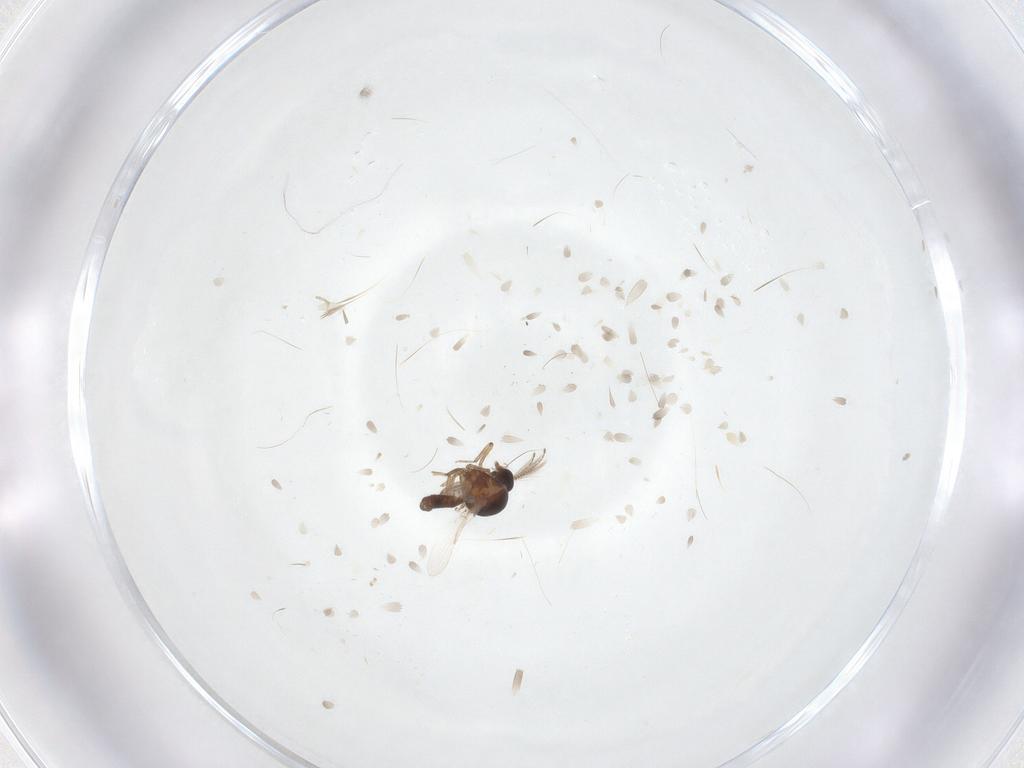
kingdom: Animalia
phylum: Arthropoda
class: Insecta
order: Diptera
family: Ceratopogonidae
